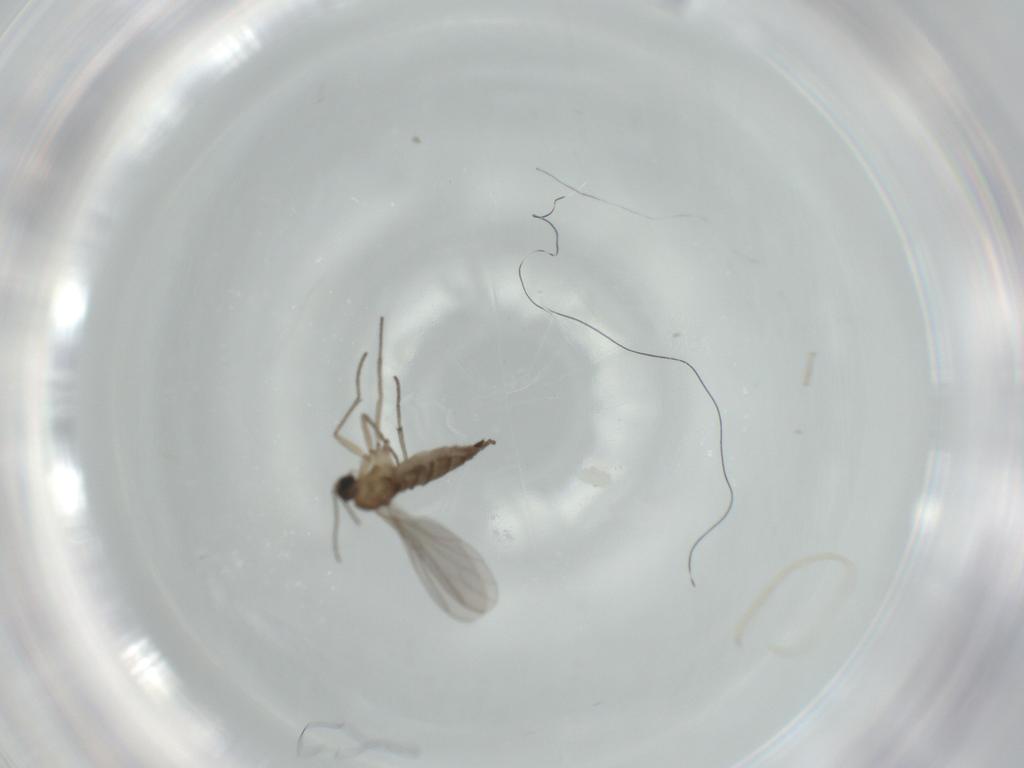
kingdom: Animalia
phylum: Arthropoda
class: Insecta
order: Diptera
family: Sciaridae
